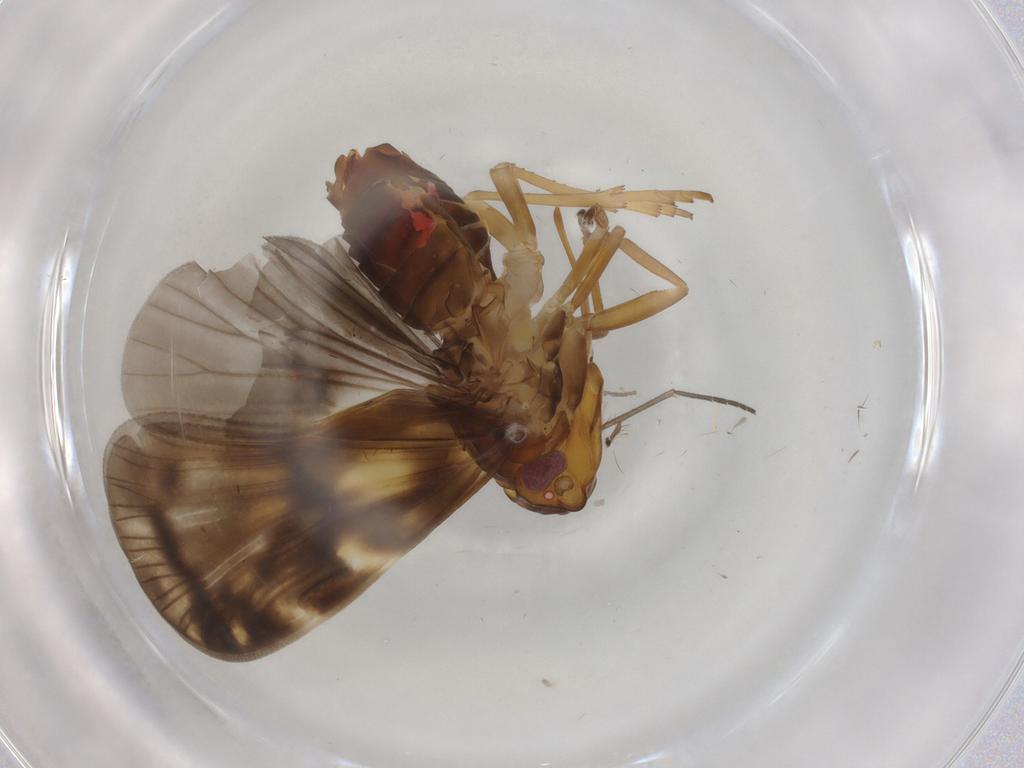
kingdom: Animalia
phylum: Arthropoda
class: Insecta
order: Hemiptera
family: Cixiidae
